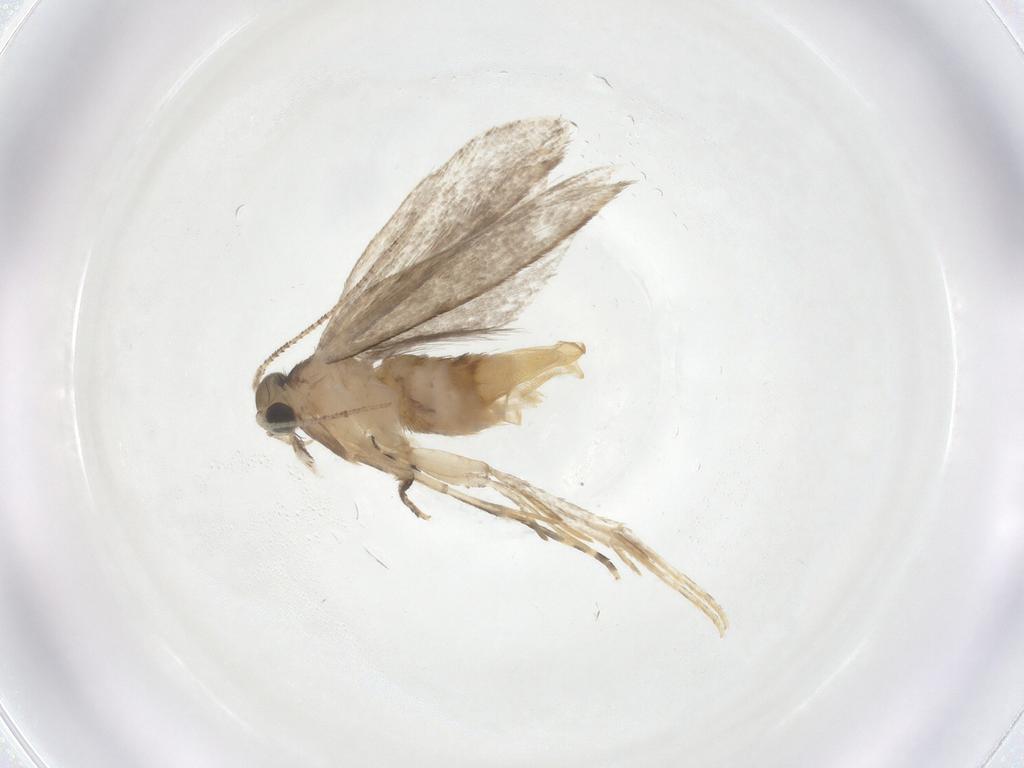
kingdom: Animalia
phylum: Arthropoda
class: Insecta
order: Lepidoptera
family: Tineidae
